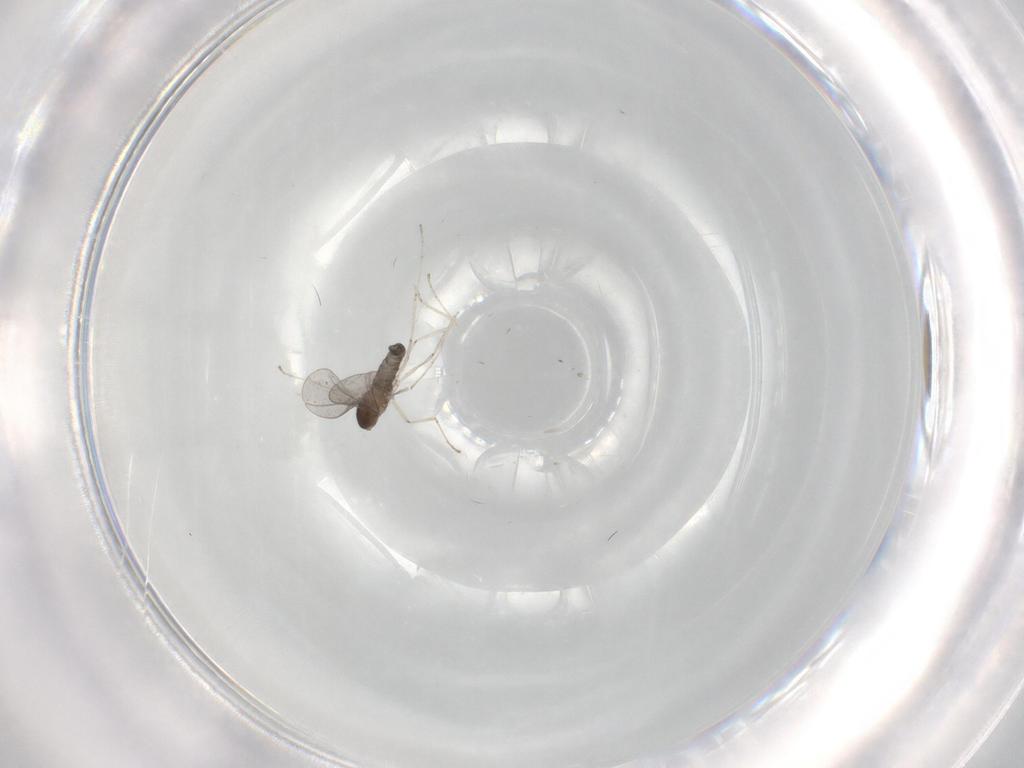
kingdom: Animalia
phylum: Arthropoda
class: Insecta
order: Diptera
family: Cecidomyiidae
